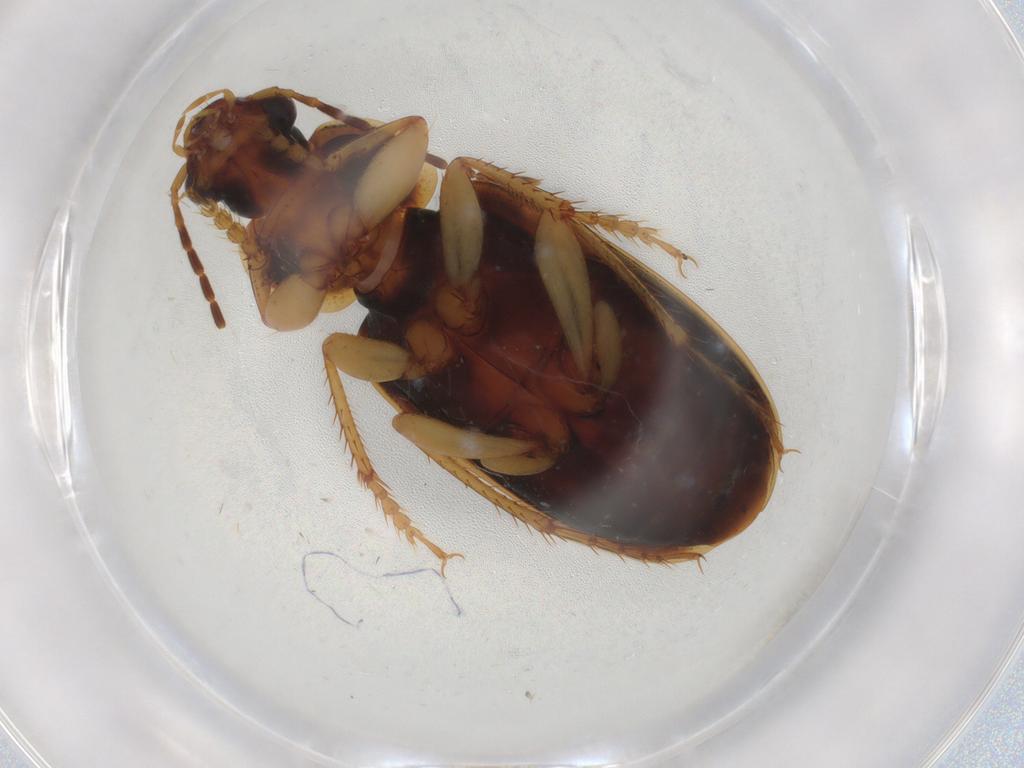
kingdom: Animalia
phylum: Arthropoda
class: Insecta
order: Coleoptera
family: Carabidae
